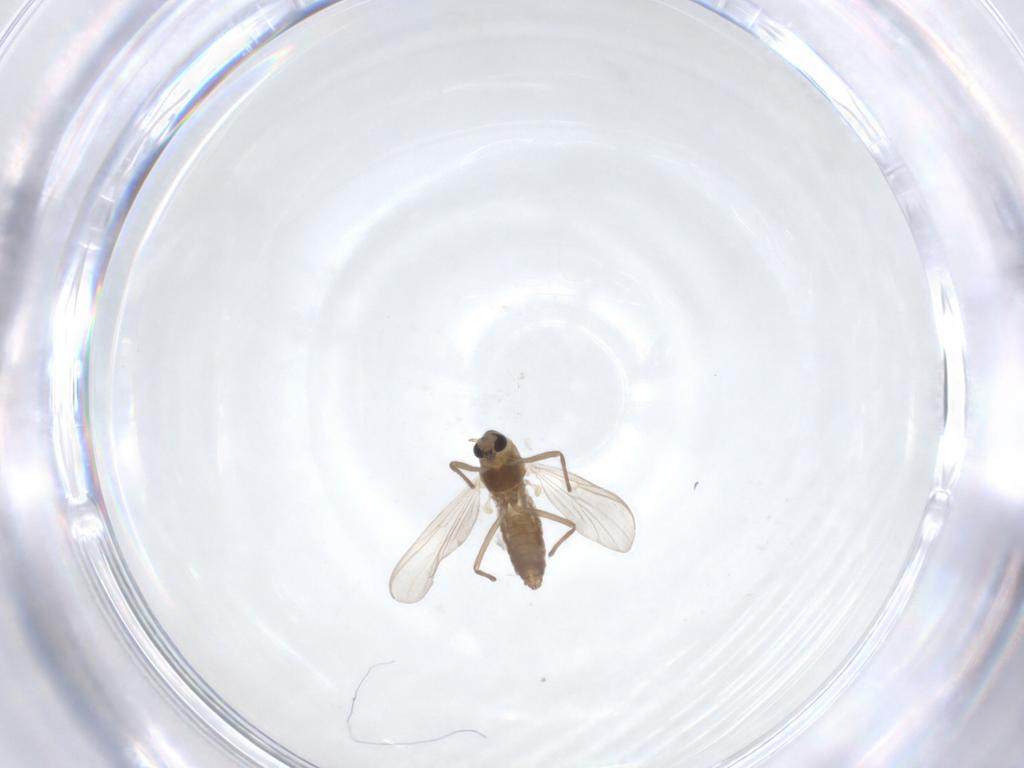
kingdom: Animalia
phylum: Arthropoda
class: Insecta
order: Diptera
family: Chironomidae
